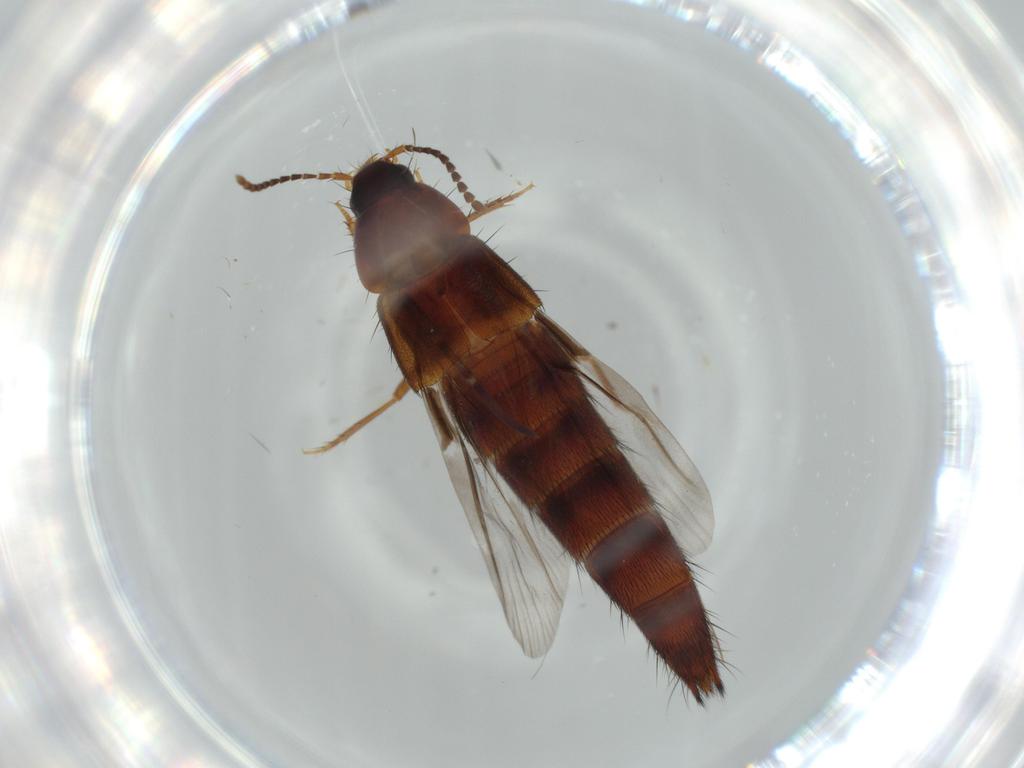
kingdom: Animalia
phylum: Arthropoda
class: Insecta
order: Coleoptera
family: Staphylinidae
